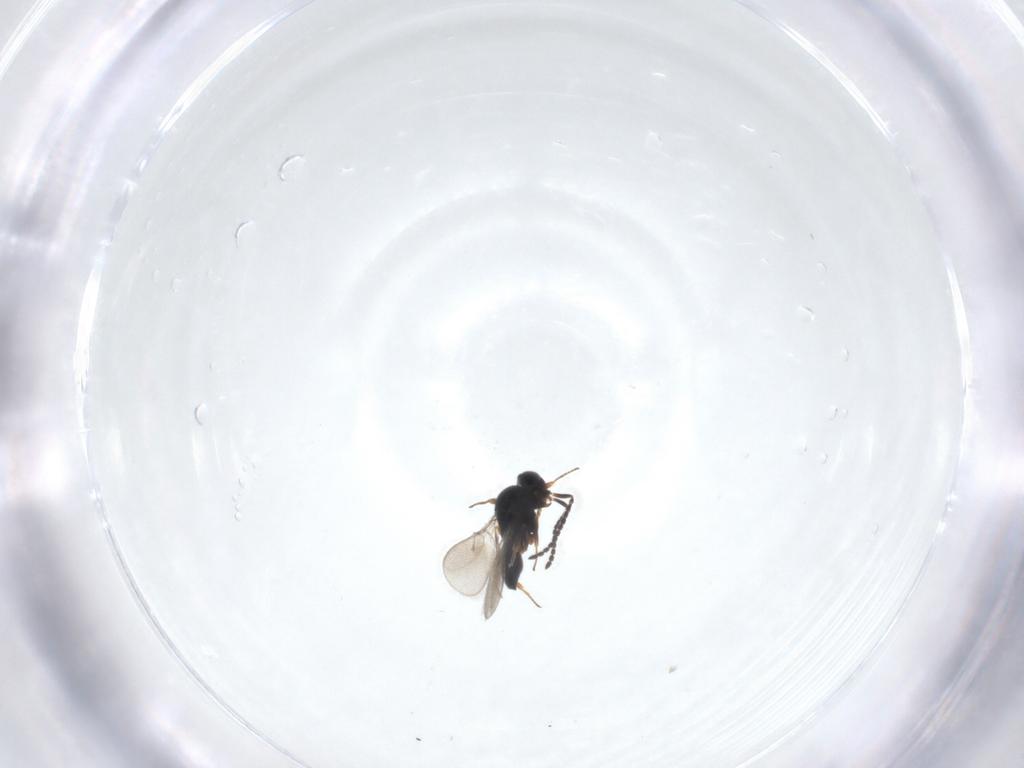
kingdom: Animalia
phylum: Arthropoda
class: Insecta
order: Hymenoptera
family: Scelionidae
